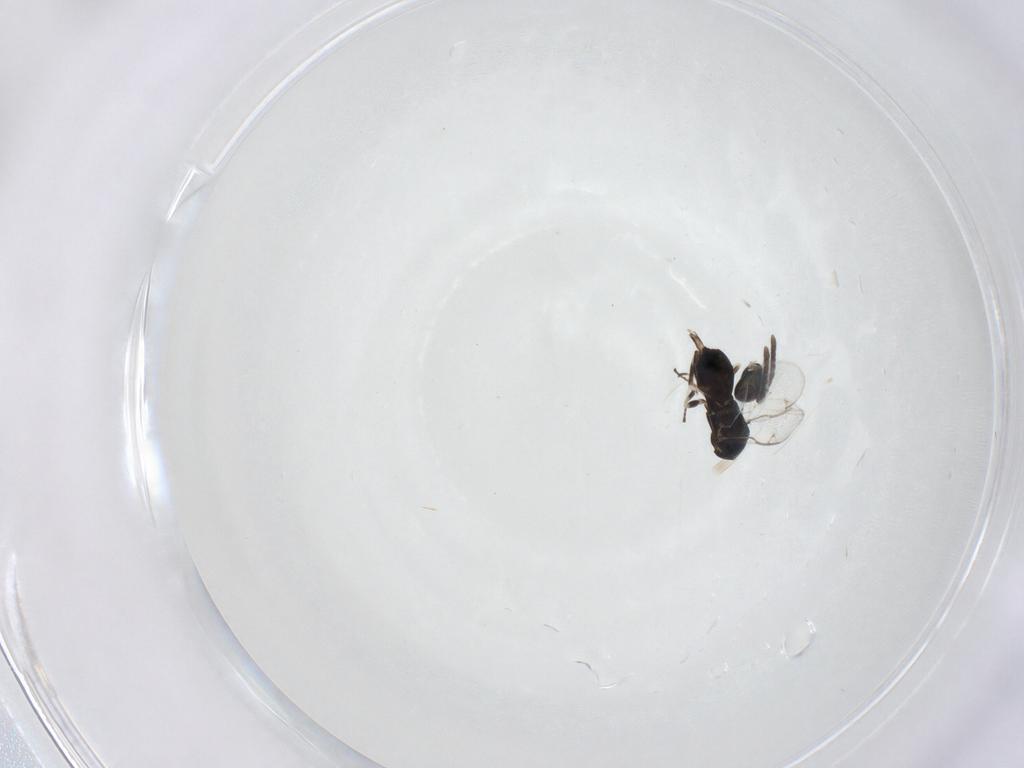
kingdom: Animalia
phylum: Arthropoda
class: Insecta
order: Hymenoptera
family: Eupelmidae
